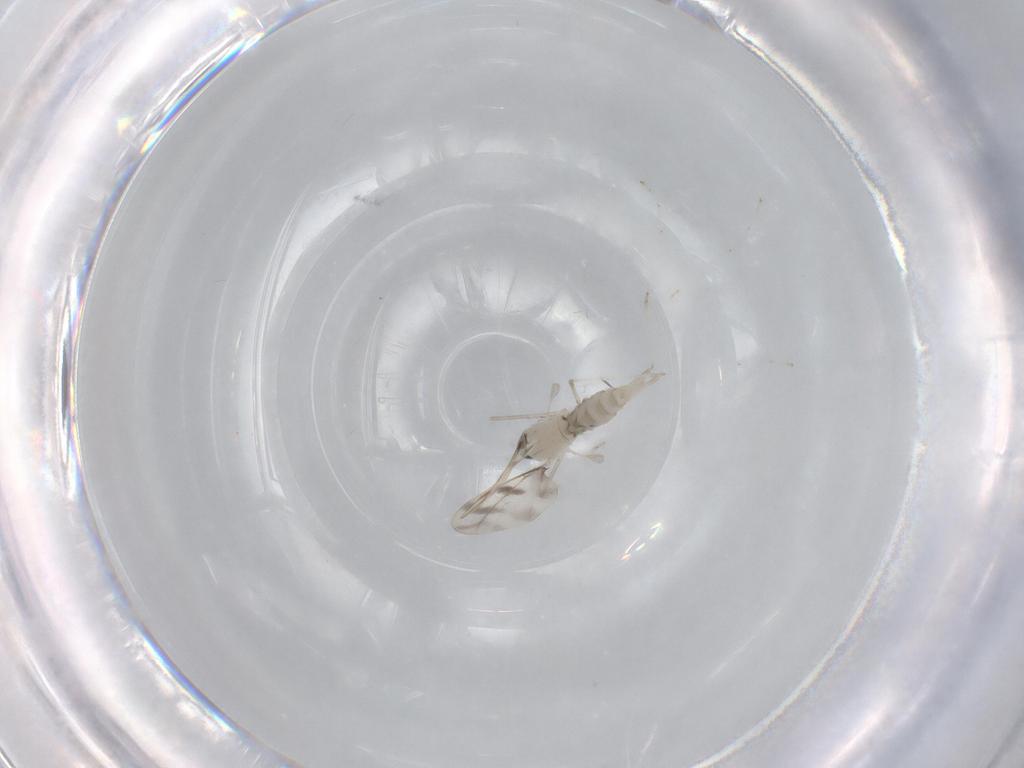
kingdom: Animalia
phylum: Arthropoda
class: Insecta
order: Diptera
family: Cecidomyiidae
